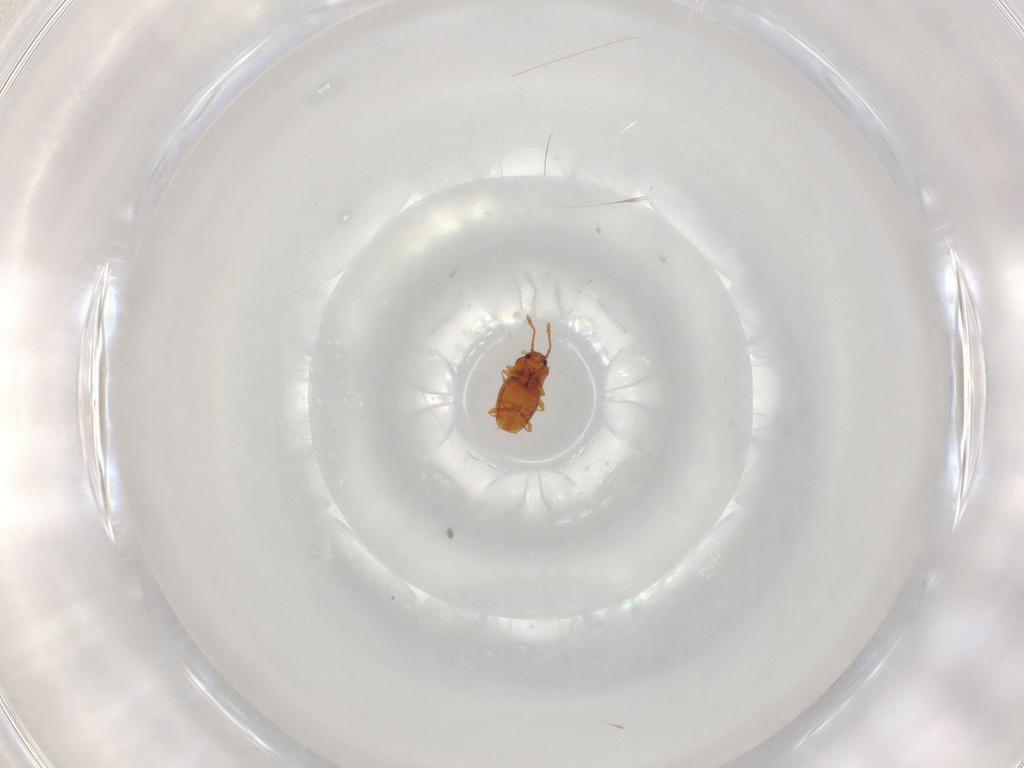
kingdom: Animalia
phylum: Arthropoda
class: Insecta
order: Coleoptera
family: Staphylinidae
